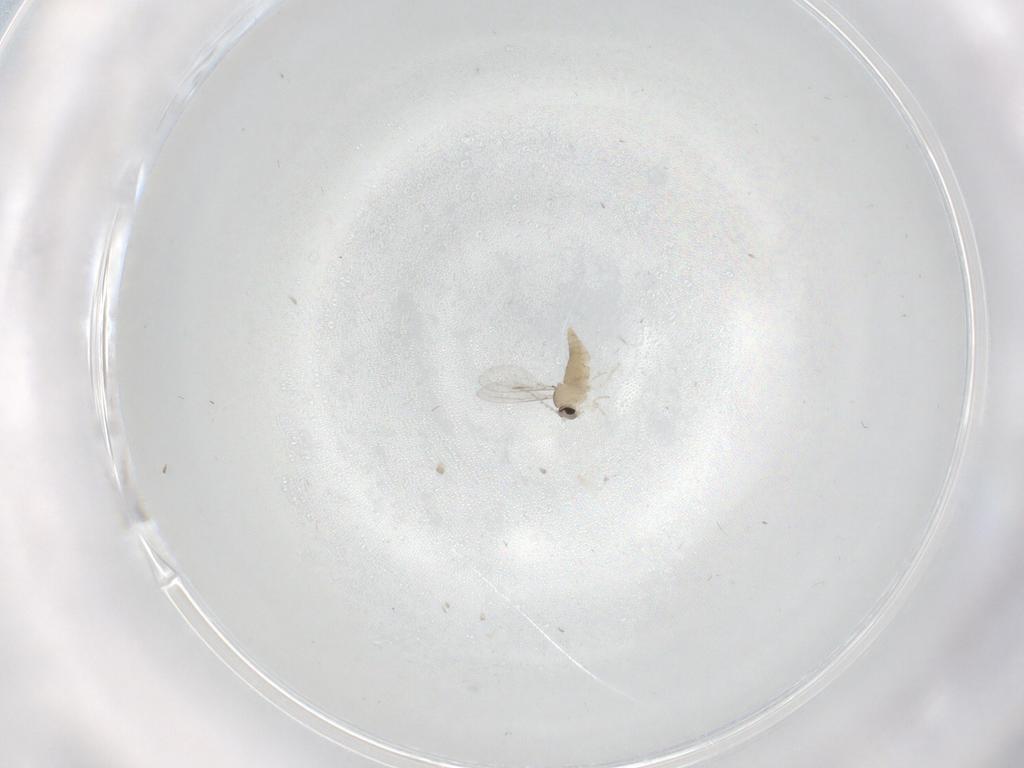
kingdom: Animalia
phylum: Arthropoda
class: Insecta
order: Diptera
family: Cecidomyiidae
